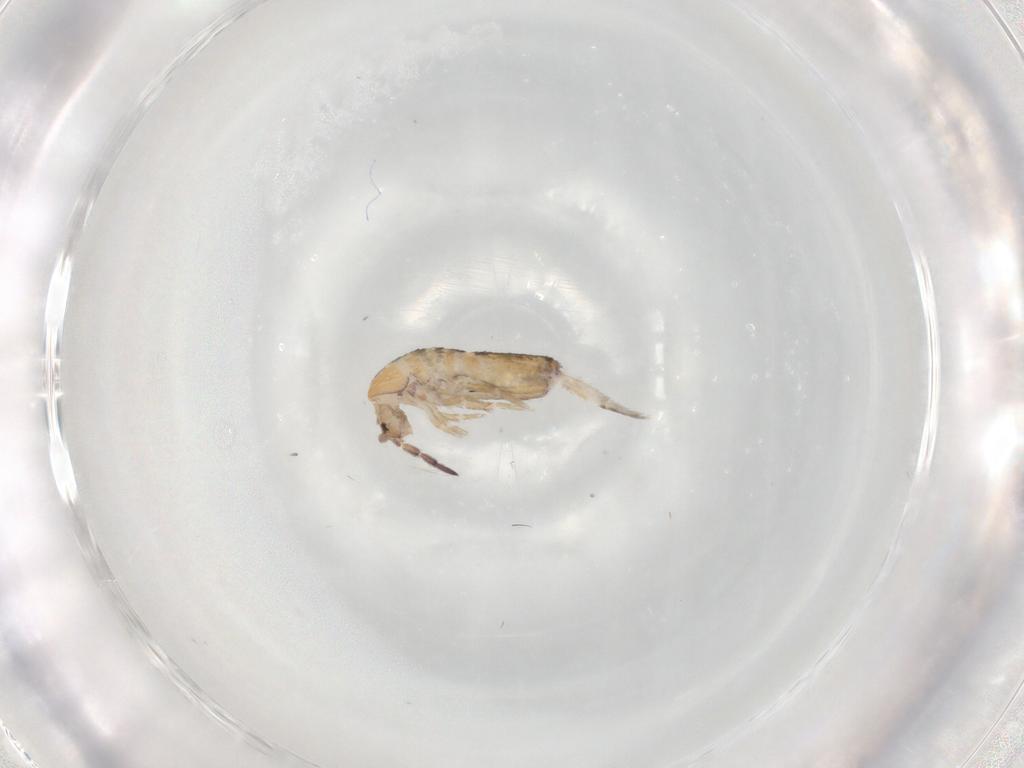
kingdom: Animalia
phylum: Arthropoda
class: Collembola
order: Entomobryomorpha
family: Entomobryidae
